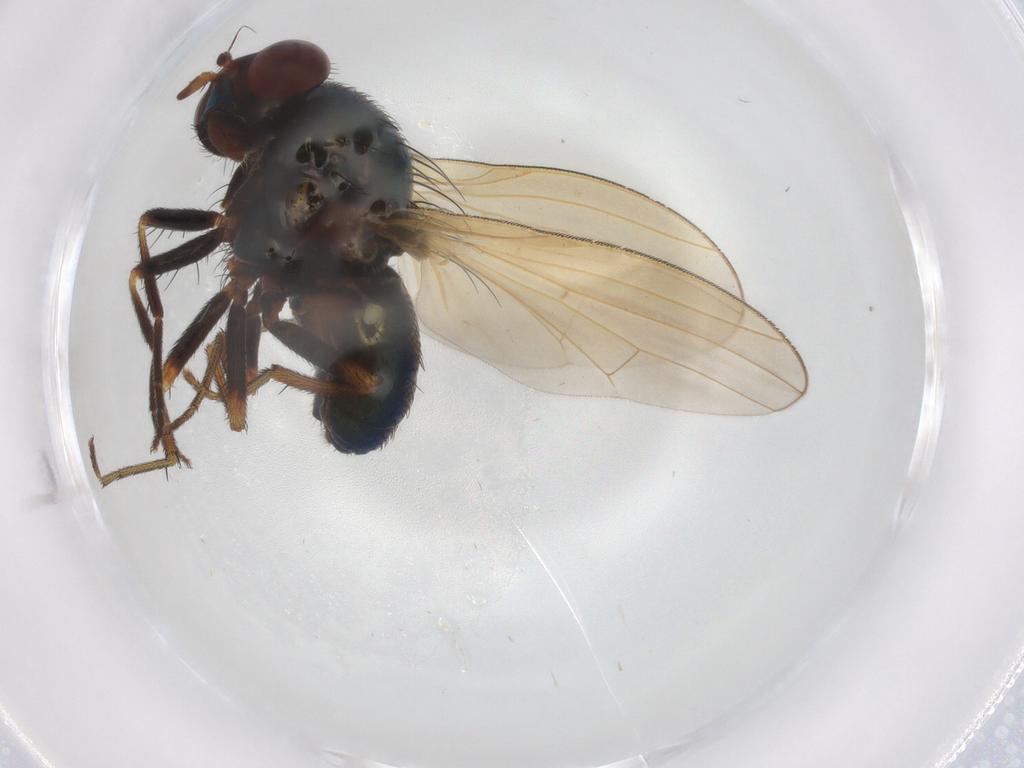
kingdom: Animalia
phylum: Arthropoda
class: Insecta
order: Diptera
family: Lauxaniidae
